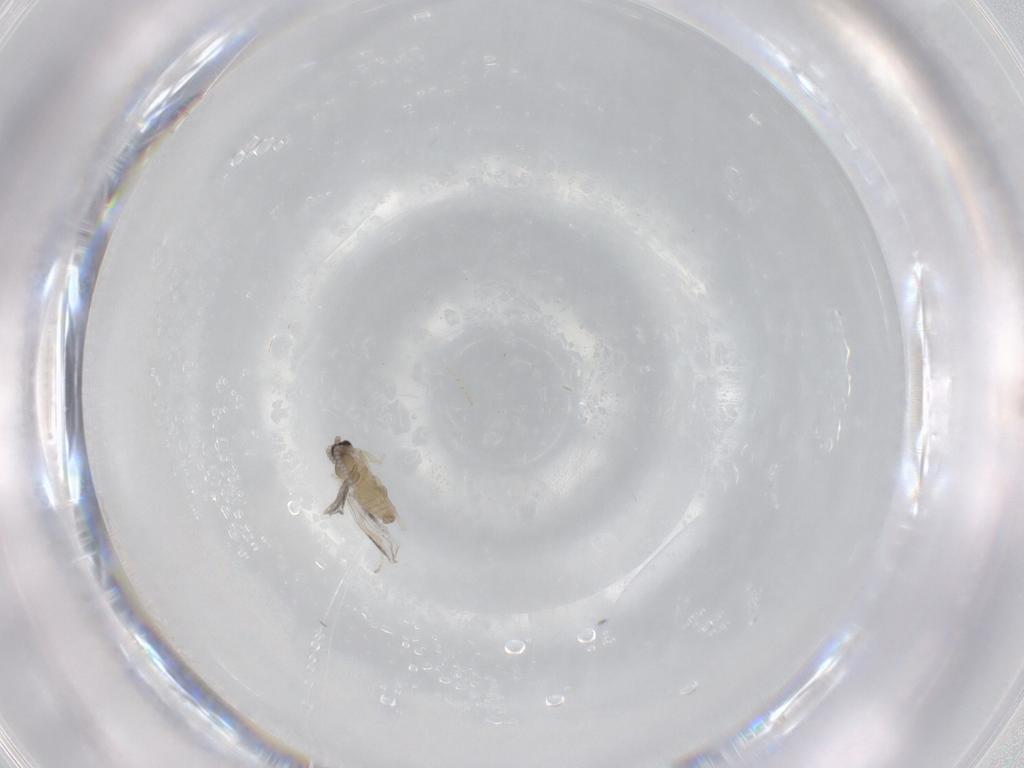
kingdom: Animalia
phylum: Arthropoda
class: Insecta
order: Diptera
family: Cecidomyiidae
